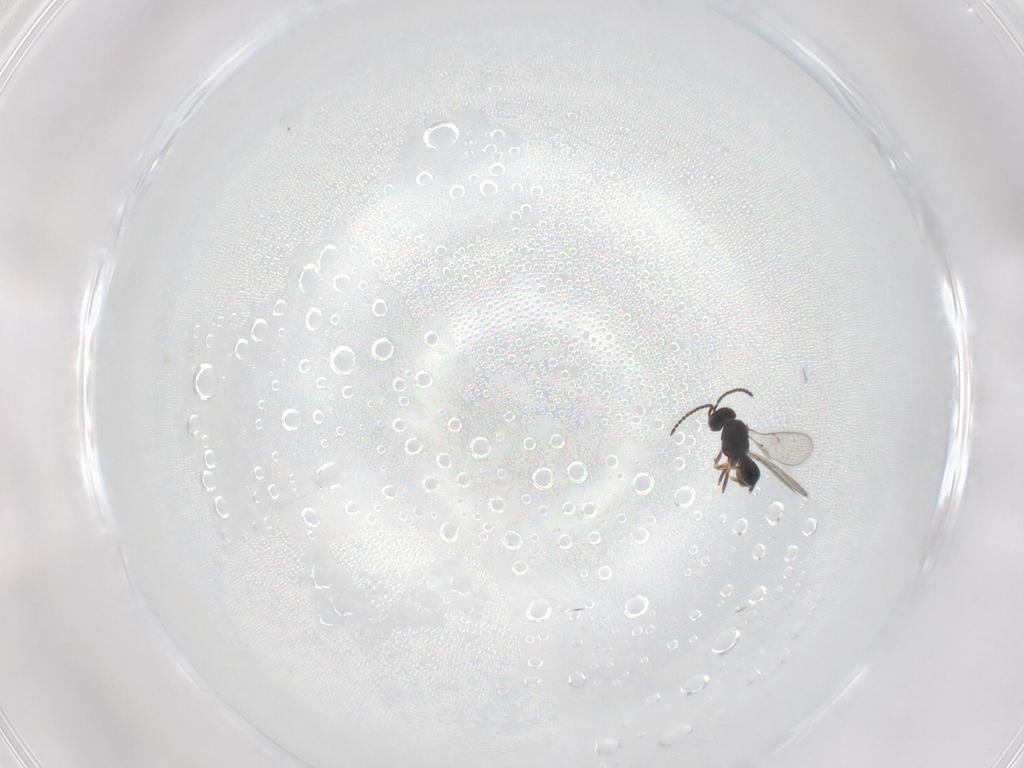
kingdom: Animalia
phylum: Arthropoda
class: Insecta
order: Hymenoptera
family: Scelionidae
